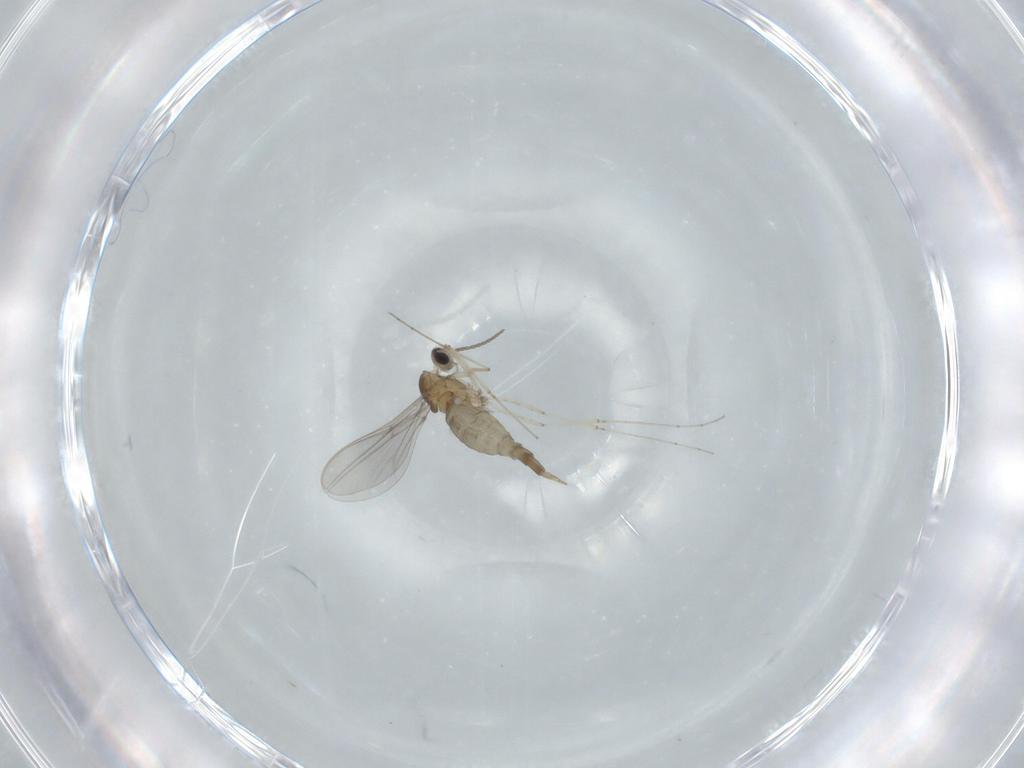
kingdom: Animalia
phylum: Arthropoda
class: Insecta
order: Diptera
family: Cecidomyiidae
